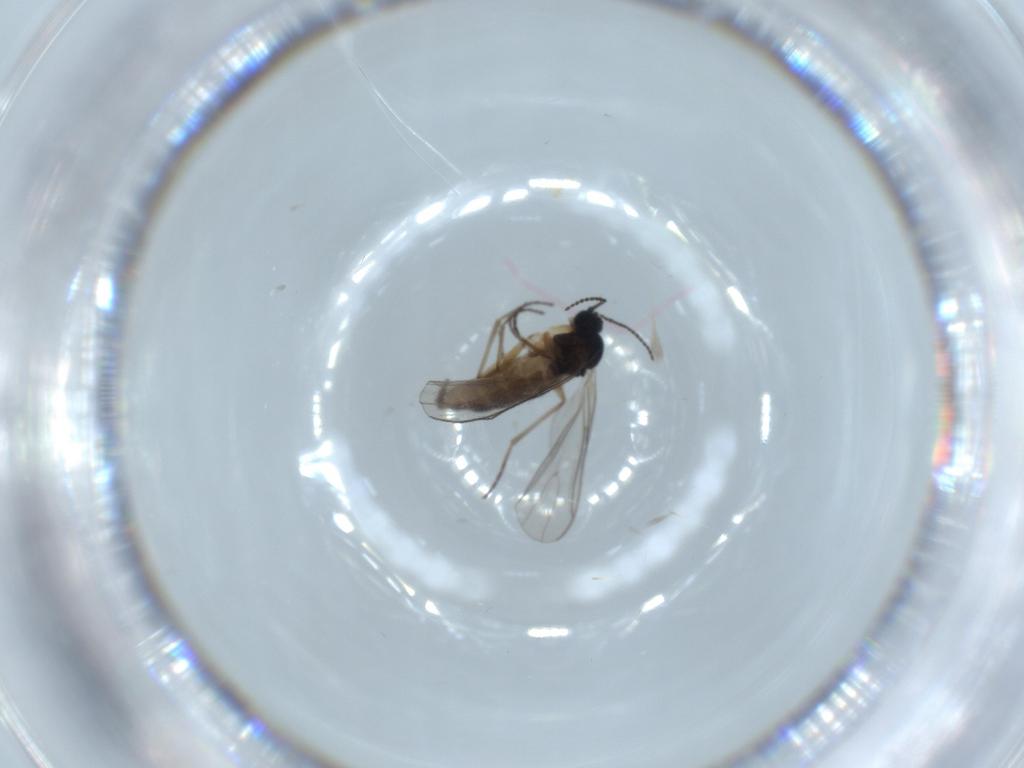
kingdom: Animalia
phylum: Arthropoda
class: Insecta
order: Diptera
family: Sciaridae
